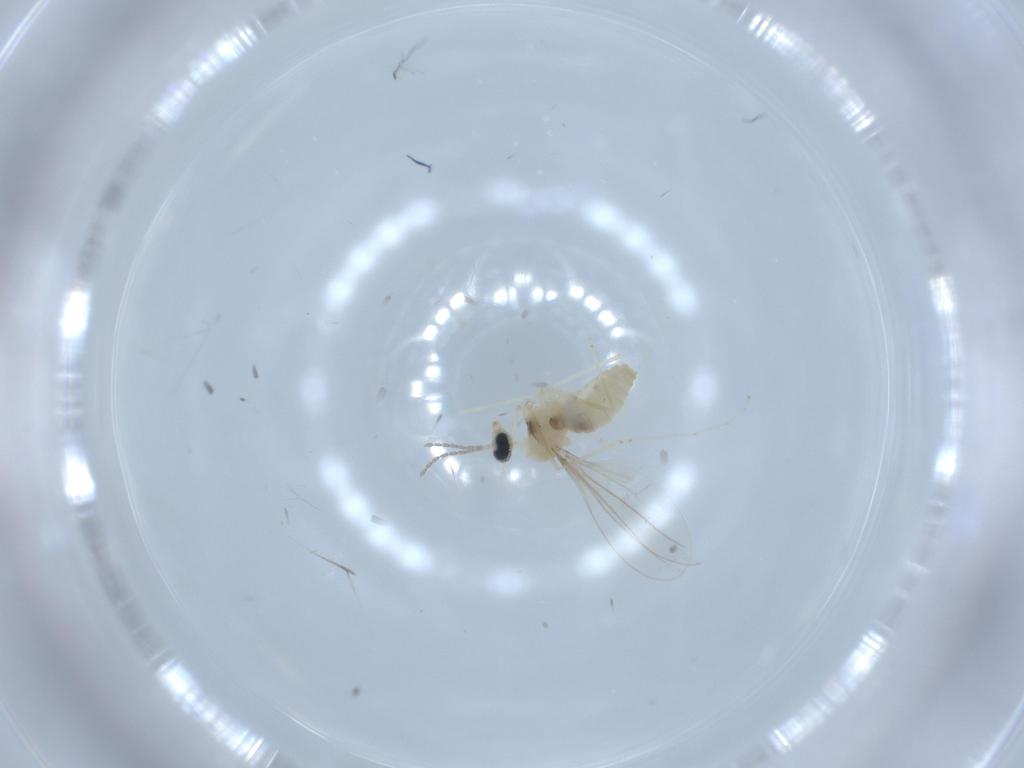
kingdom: Animalia
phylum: Arthropoda
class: Insecta
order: Diptera
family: Cecidomyiidae
